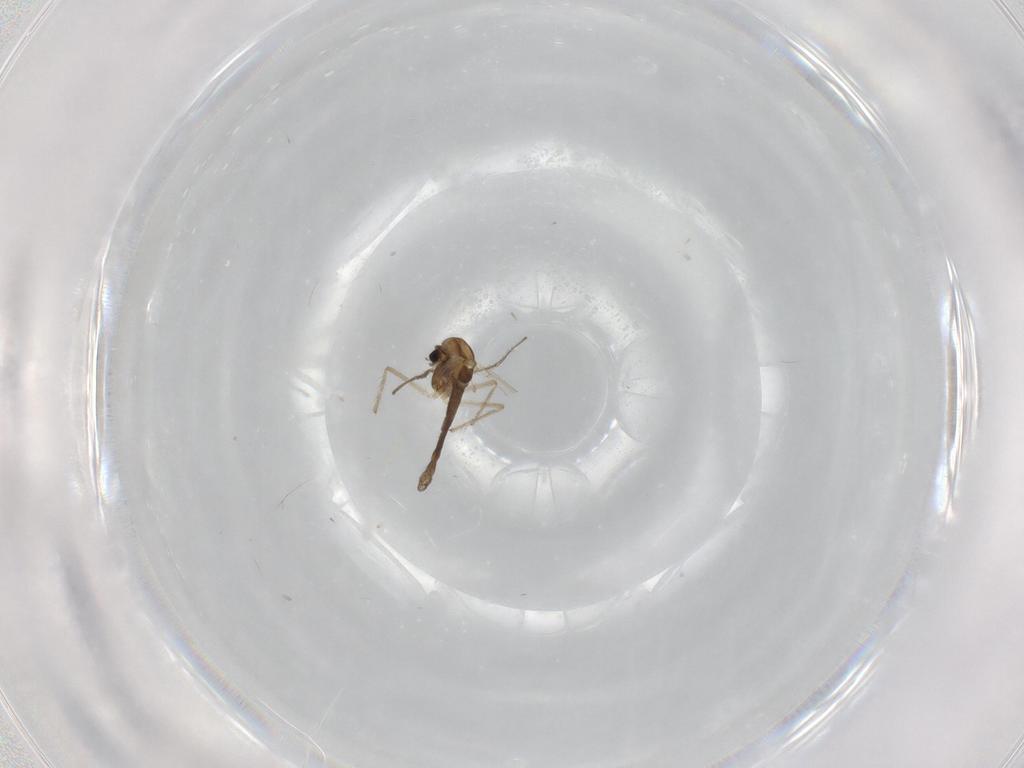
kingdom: Animalia
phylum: Arthropoda
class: Insecta
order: Diptera
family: Chironomidae
